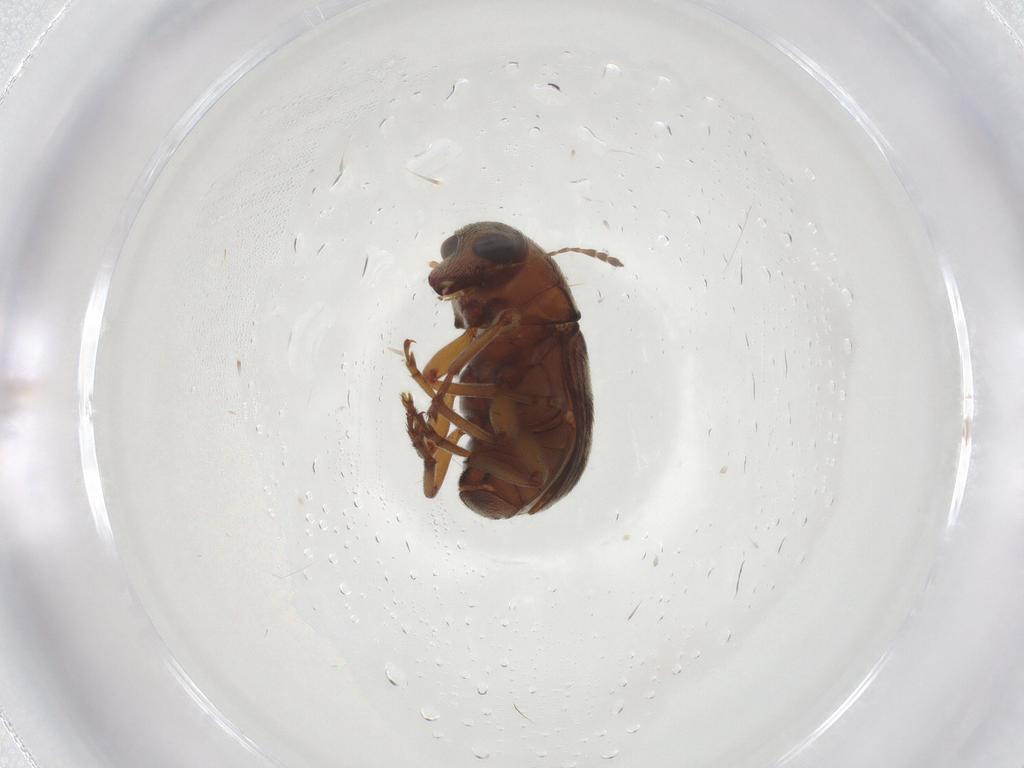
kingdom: Animalia
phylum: Arthropoda
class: Insecta
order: Coleoptera
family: Anthribidae
